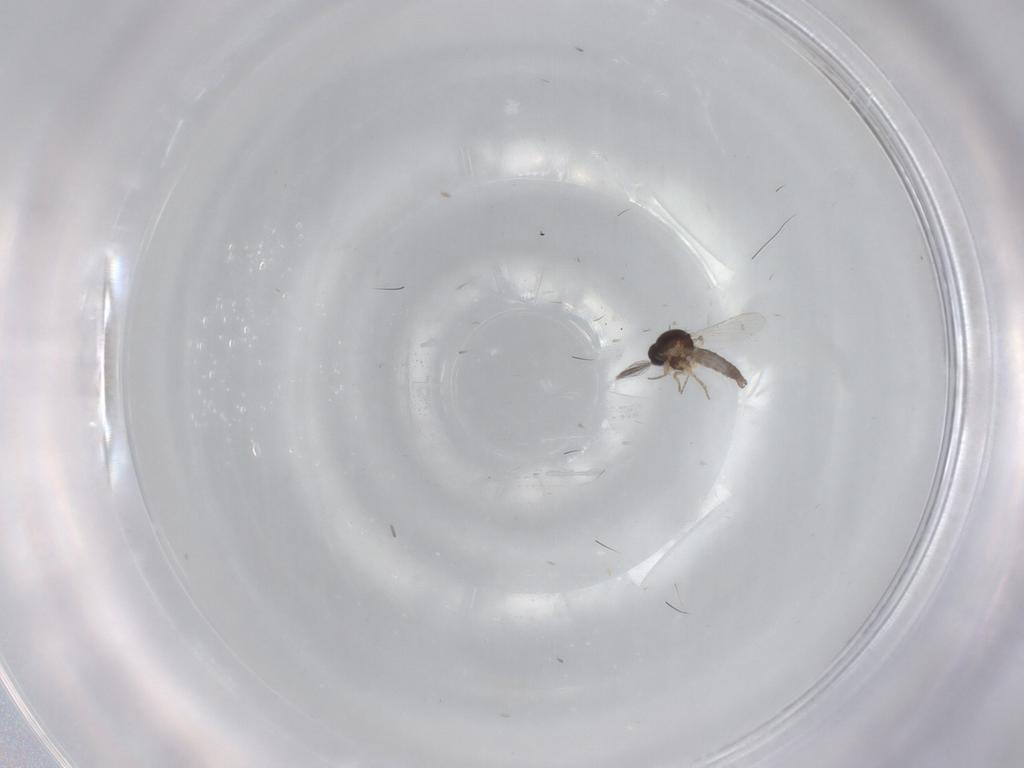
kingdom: Animalia
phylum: Arthropoda
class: Insecta
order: Diptera
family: Ceratopogonidae
